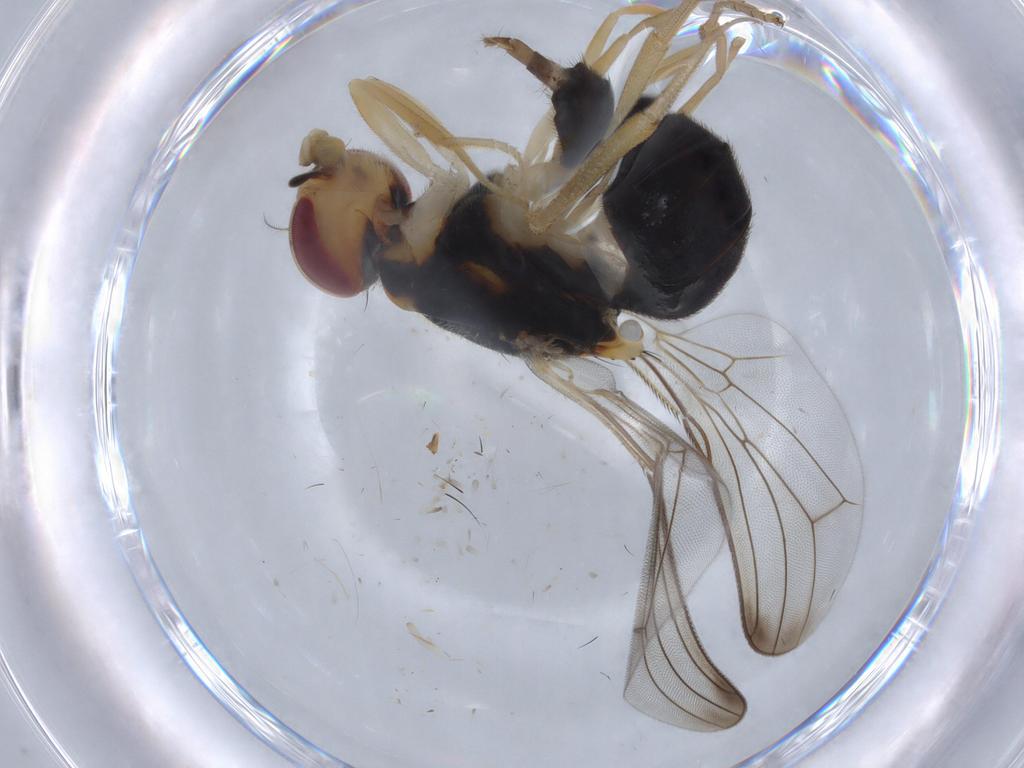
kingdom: Animalia
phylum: Arthropoda
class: Insecta
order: Diptera
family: Psilidae
